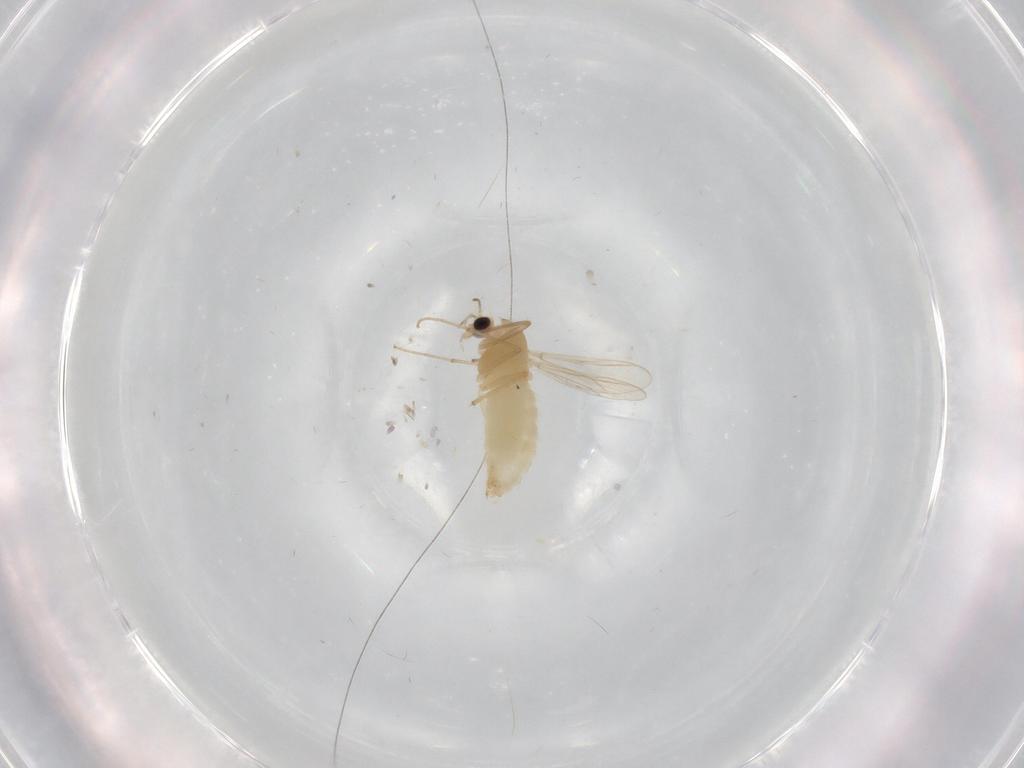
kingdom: Animalia
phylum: Arthropoda
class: Insecta
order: Diptera
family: Chironomidae
